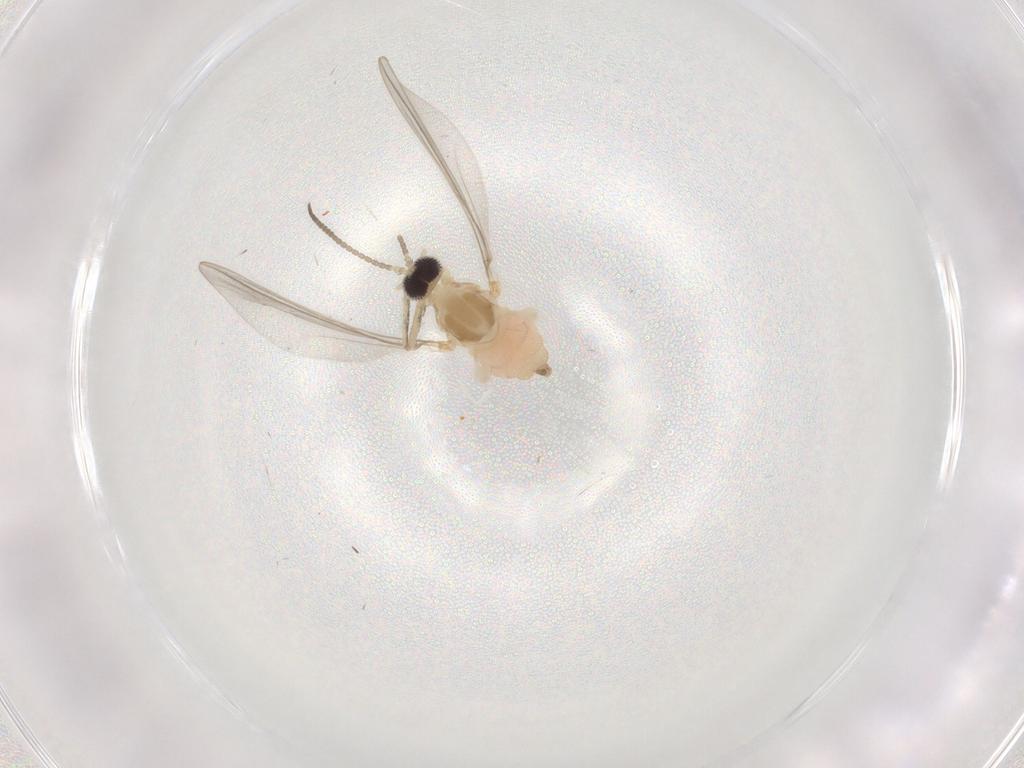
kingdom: Animalia
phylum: Arthropoda
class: Insecta
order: Diptera
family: Cecidomyiidae
